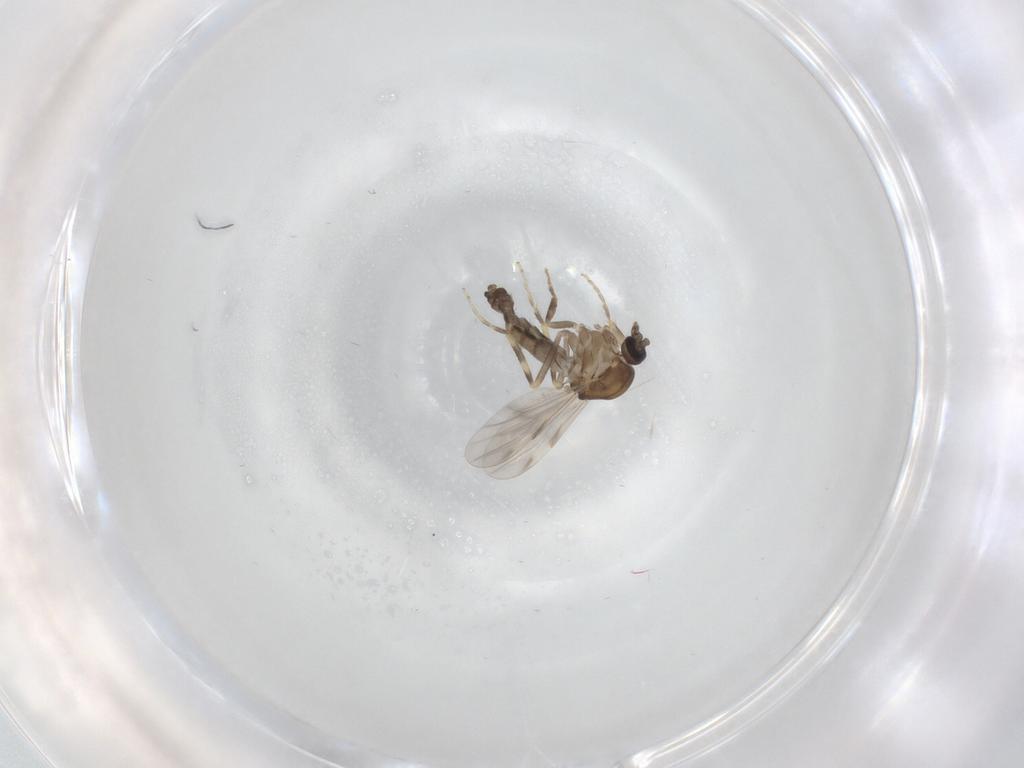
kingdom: Animalia
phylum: Arthropoda
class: Insecta
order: Diptera
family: Ceratopogonidae
